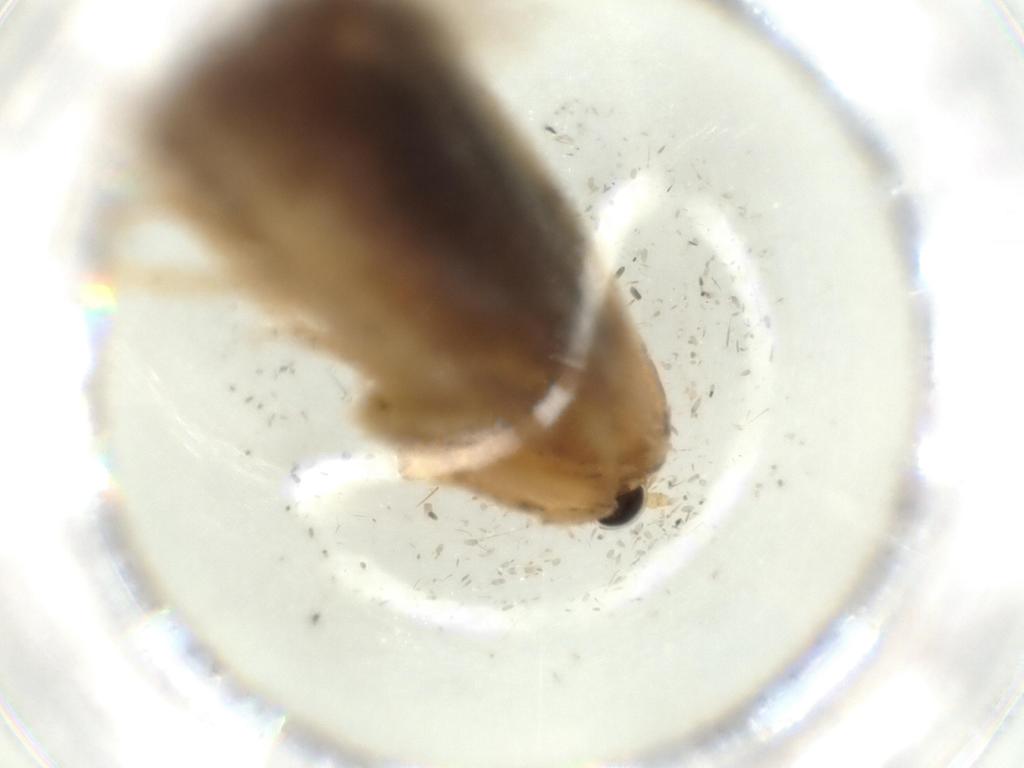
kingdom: Animalia
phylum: Arthropoda
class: Insecta
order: Lepidoptera
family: Tineidae
